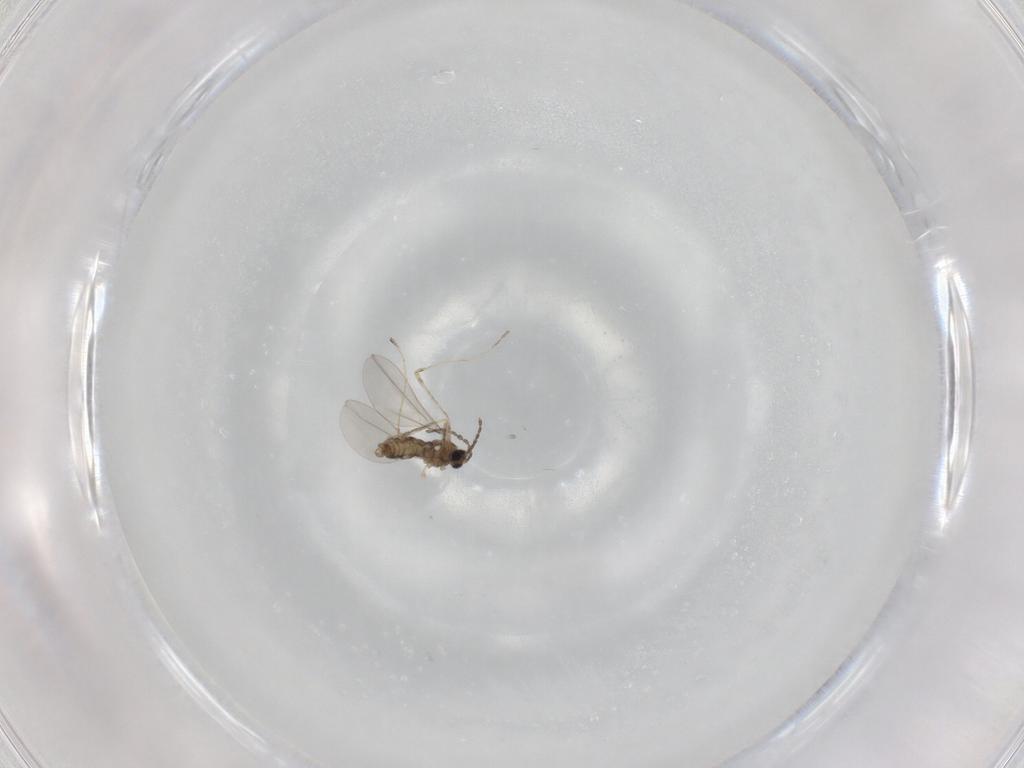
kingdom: Animalia
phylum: Arthropoda
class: Insecta
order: Diptera
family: Ceratopogonidae
